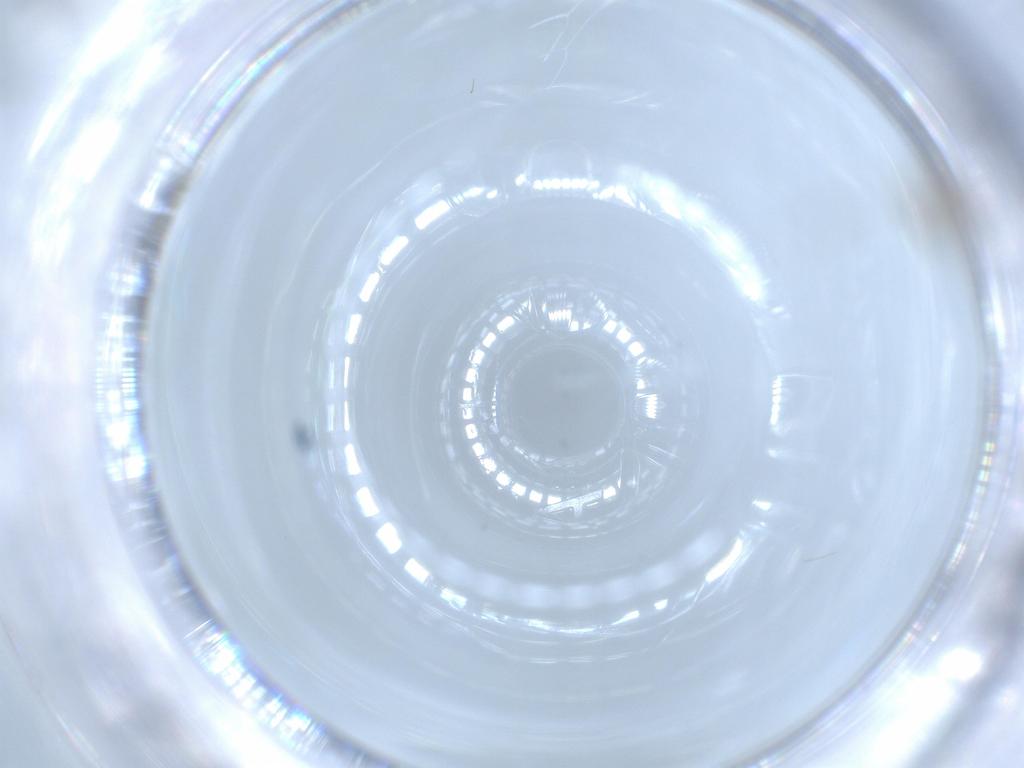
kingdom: Animalia
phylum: Arthropoda
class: Insecta
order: Diptera
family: Psychodidae
